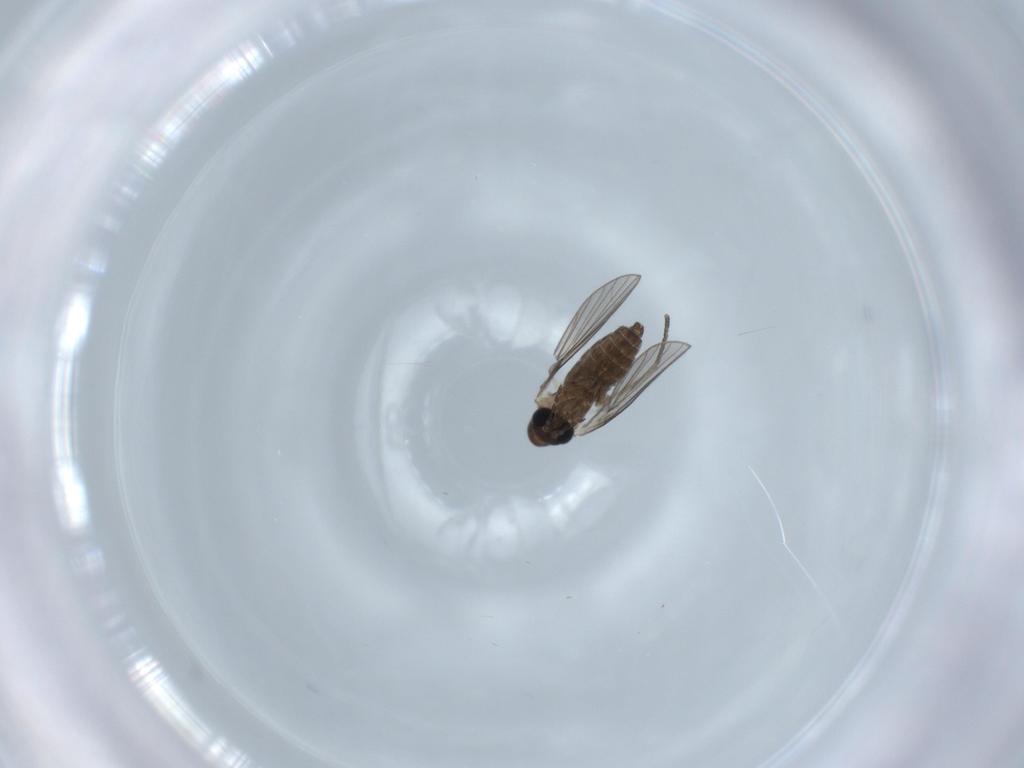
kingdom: Animalia
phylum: Arthropoda
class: Insecta
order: Diptera
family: Psychodidae
